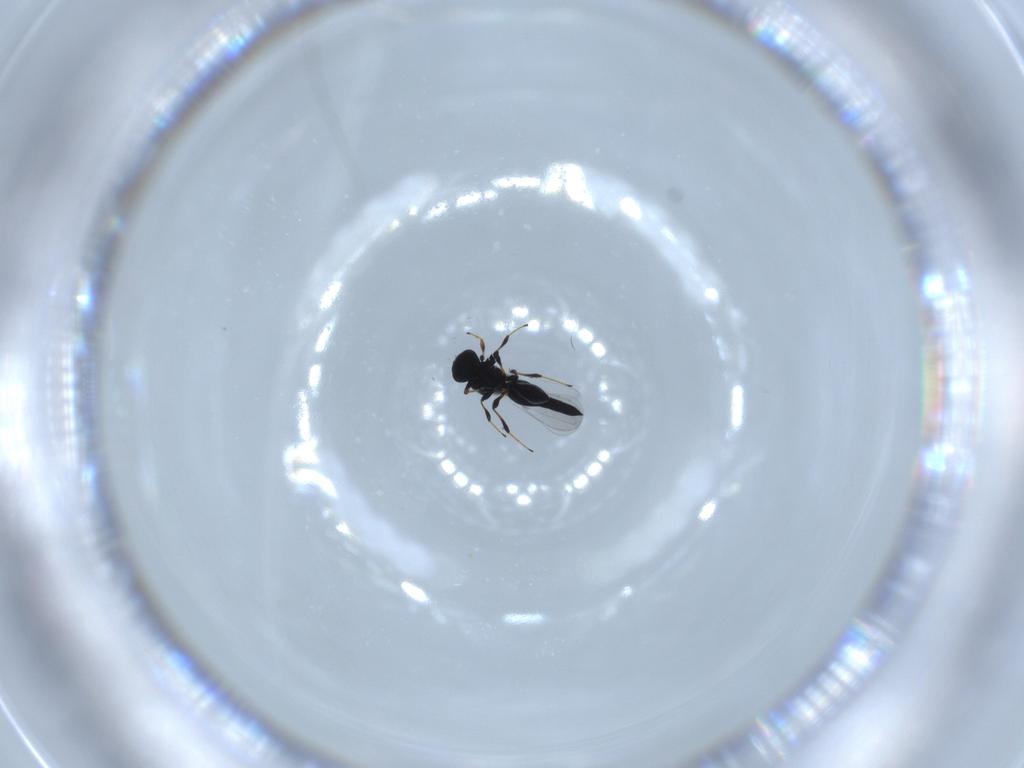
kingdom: Animalia
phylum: Arthropoda
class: Insecta
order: Hymenoptera
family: Platygastridae
